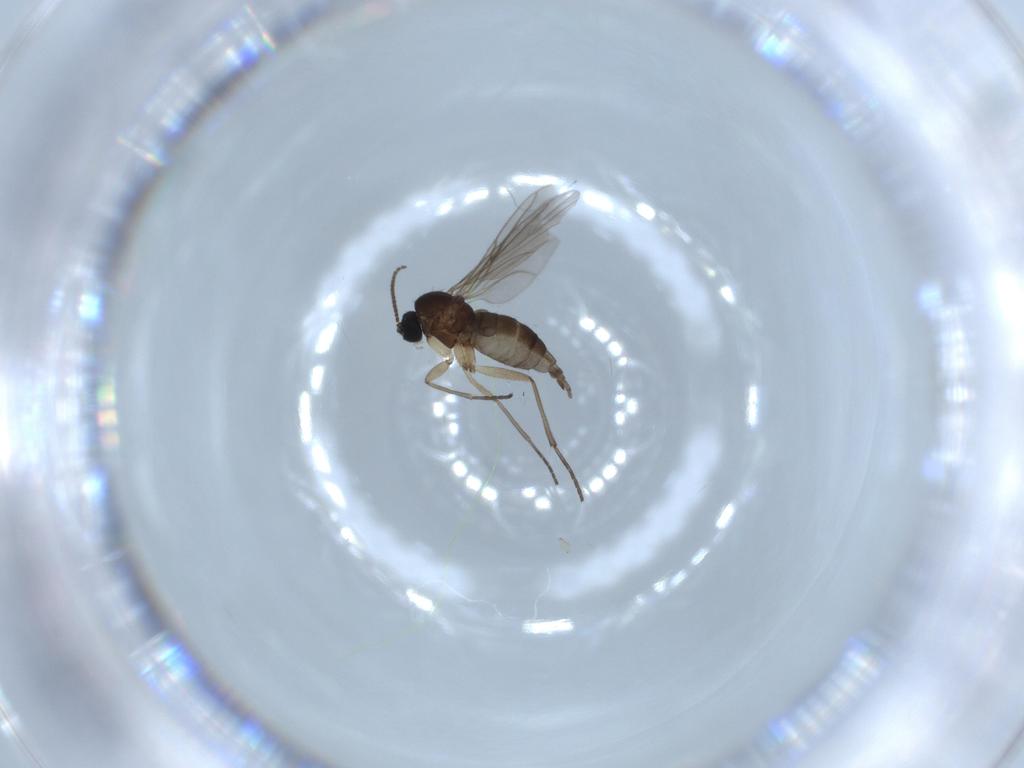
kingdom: Animalia
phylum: Arthropoda
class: Insecta
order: Diptera
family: Sciaridae
